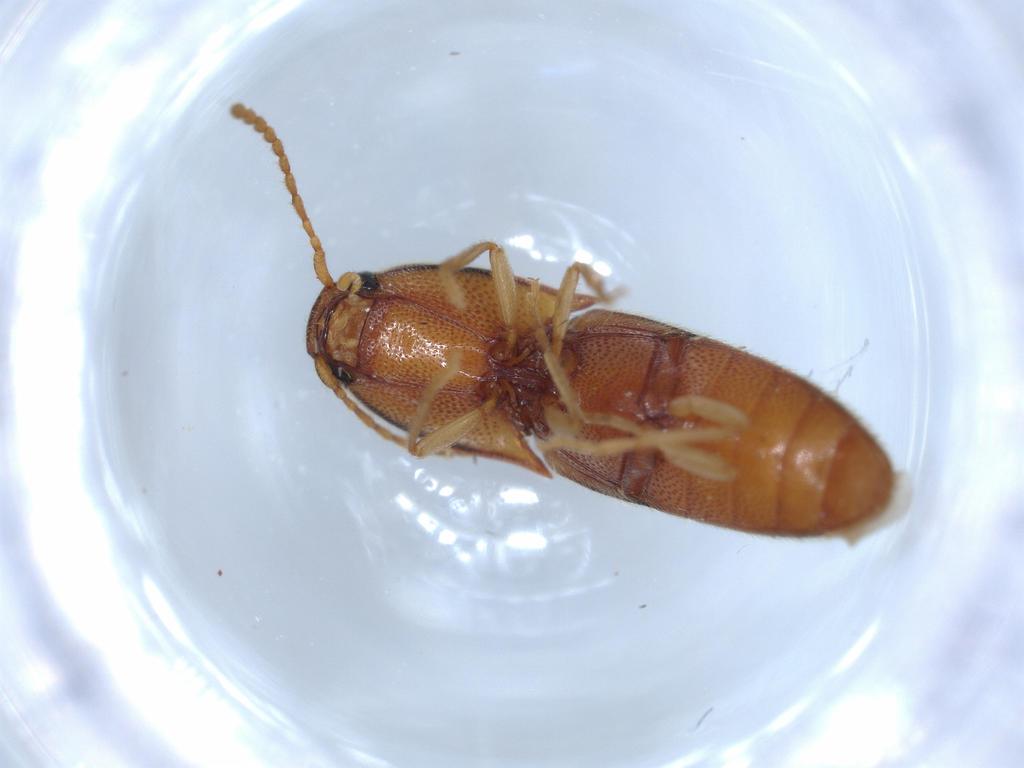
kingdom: Animalia
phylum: Arthropoda
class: Insecta
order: Coleoptera
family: Elateridae
